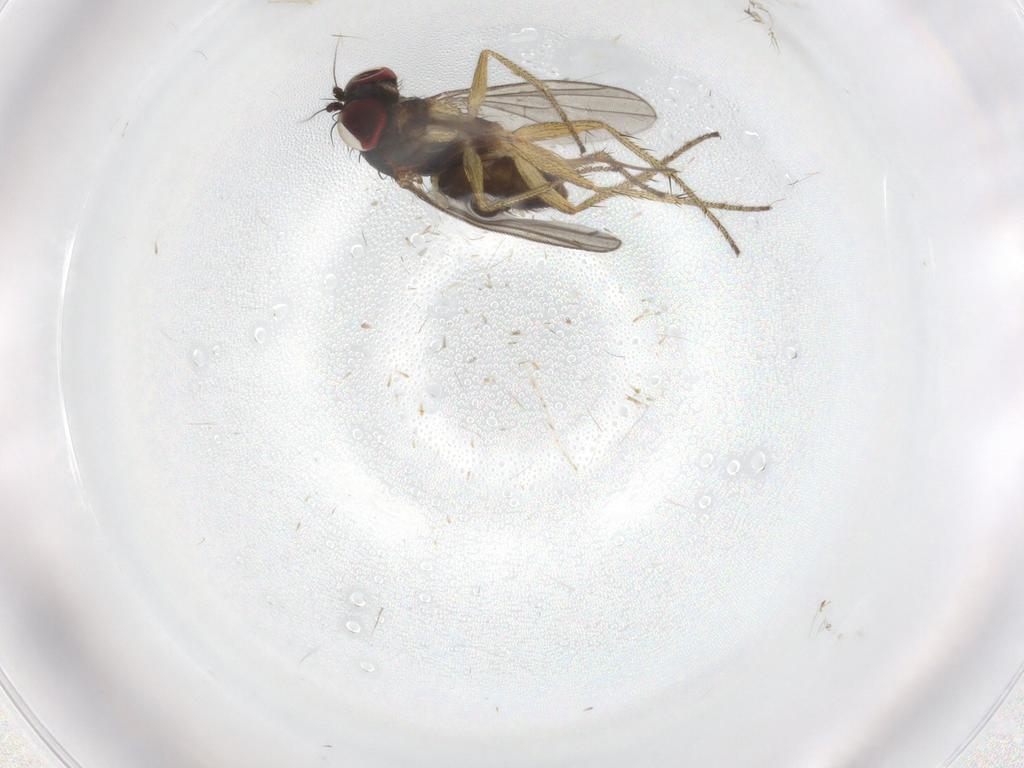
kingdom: Animalia
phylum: Arthropoda
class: Insecta
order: Diptera
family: Dolichopodidae
